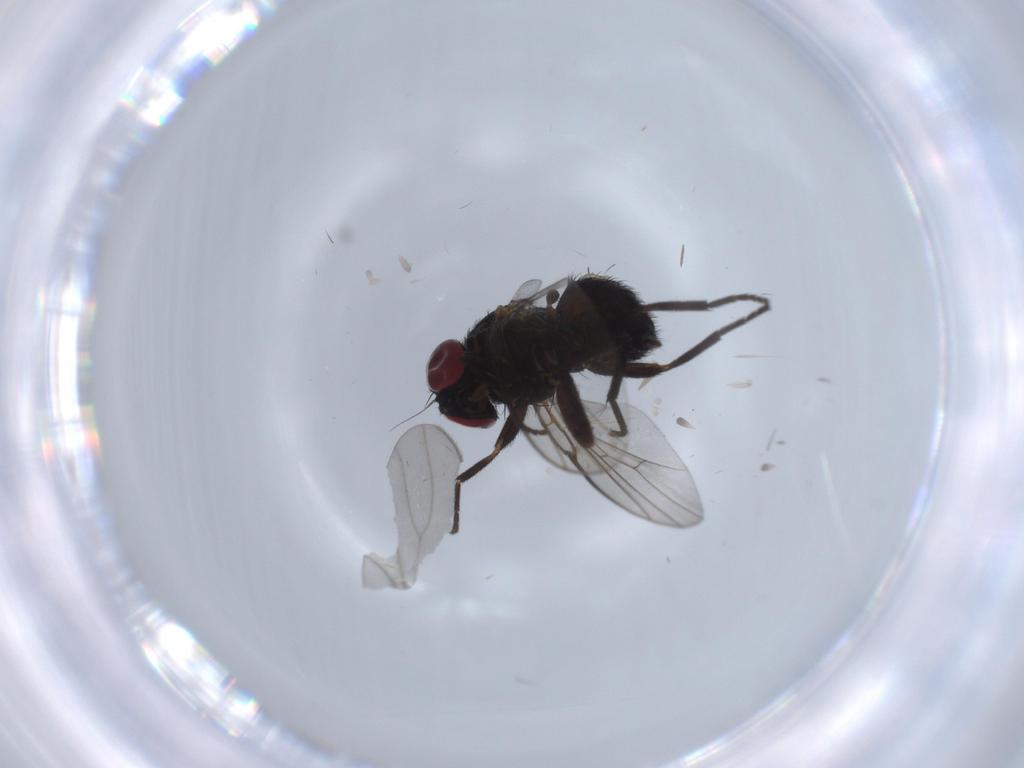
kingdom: Animalia
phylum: Arthropoda
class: Insecta
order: Diptera
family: Agromyzidae
